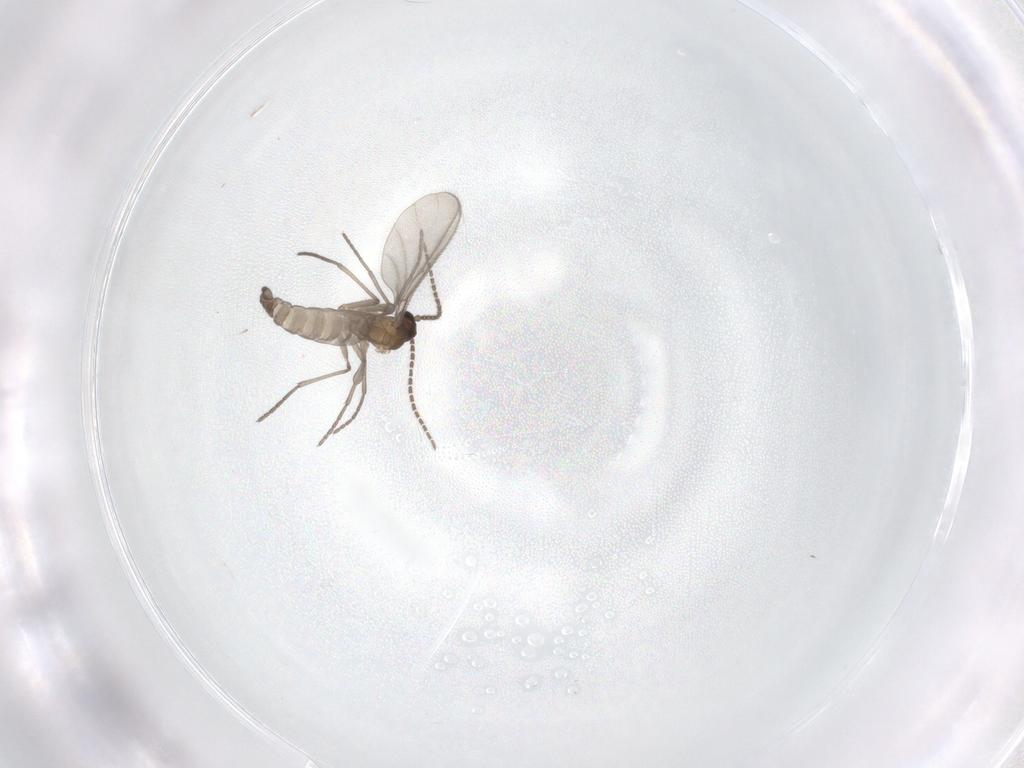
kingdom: Animalia
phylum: Arthropoda
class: Insecta
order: Diptera
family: Sciaridae
